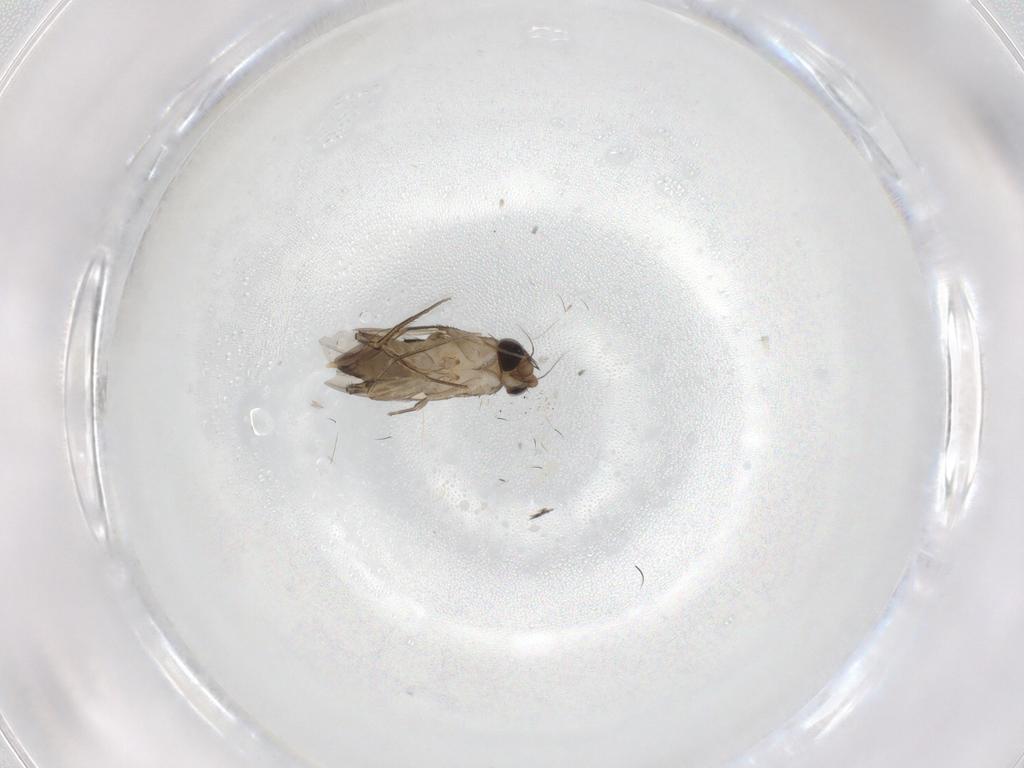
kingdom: Animalia
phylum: Arthropoda
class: Insecta
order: Diptera
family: Phoridae
